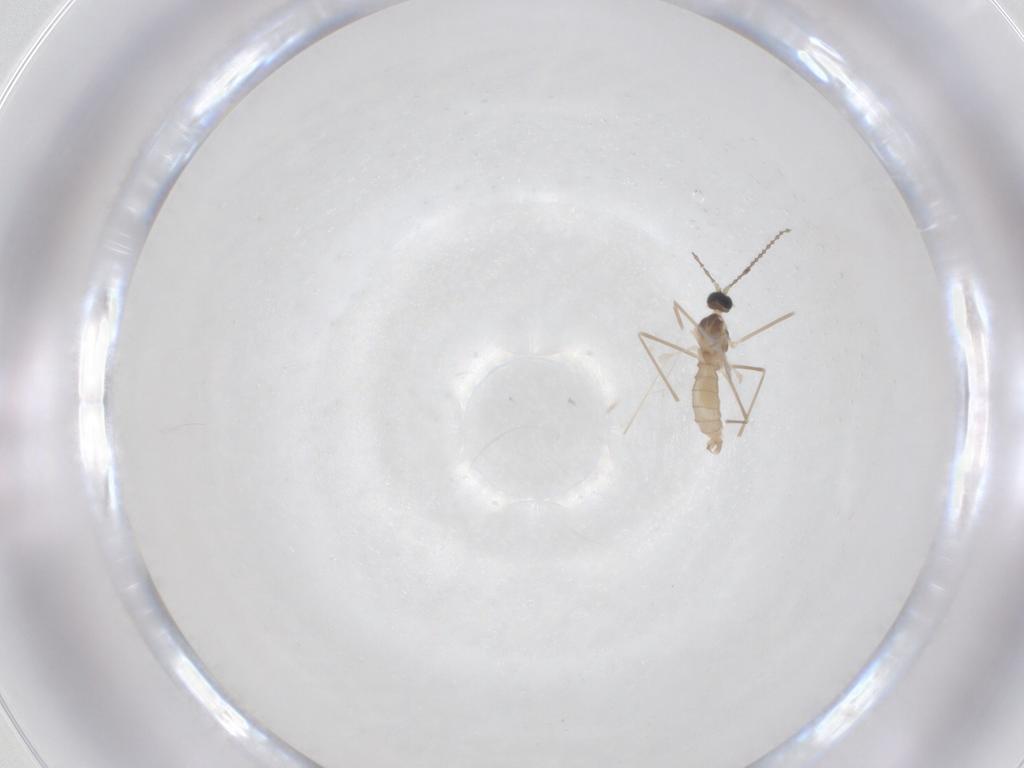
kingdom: Animalia
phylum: Arthropoda
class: Insecta
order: Diptera
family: Cecidomyiidae
